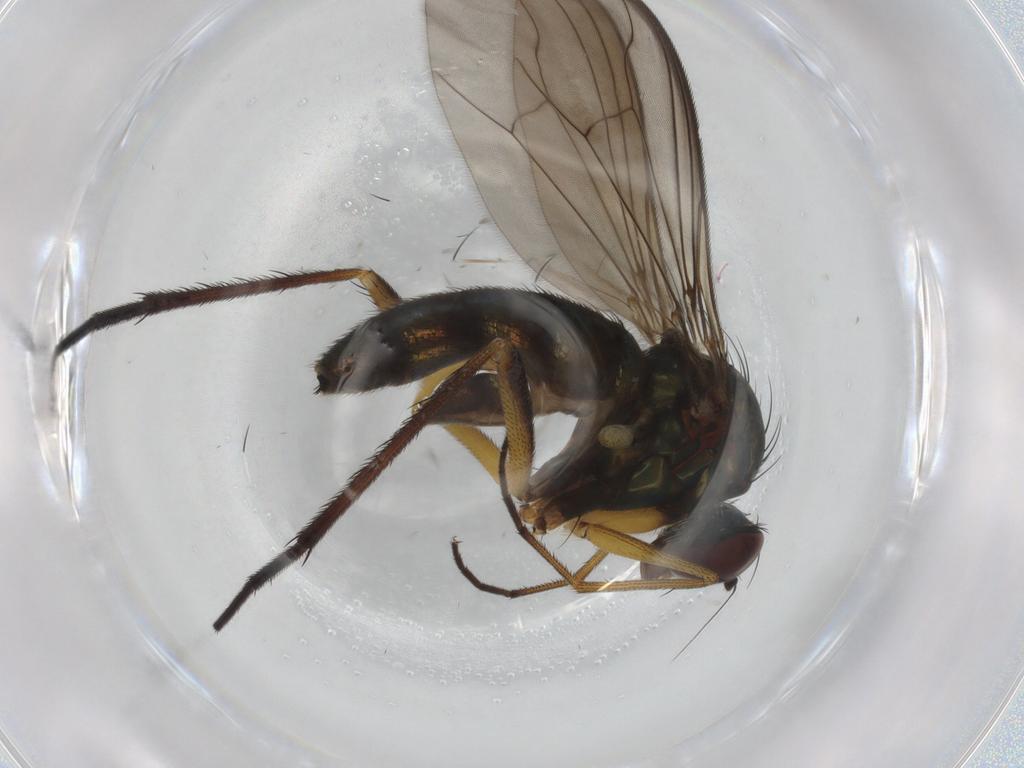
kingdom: Animalia
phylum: Arthropoda
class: Insecta
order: Diptera
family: Dolichopodidae
